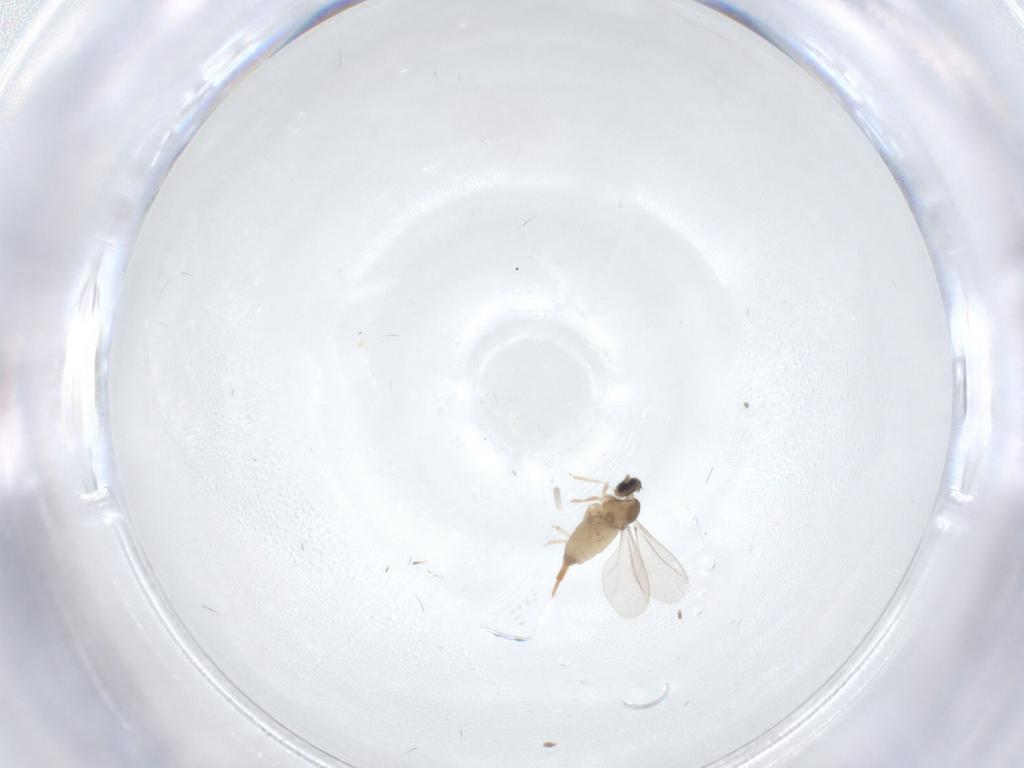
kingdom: Animalia
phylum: Arthropoda
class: Insecta
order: Diptera
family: Cecidomyiidae
